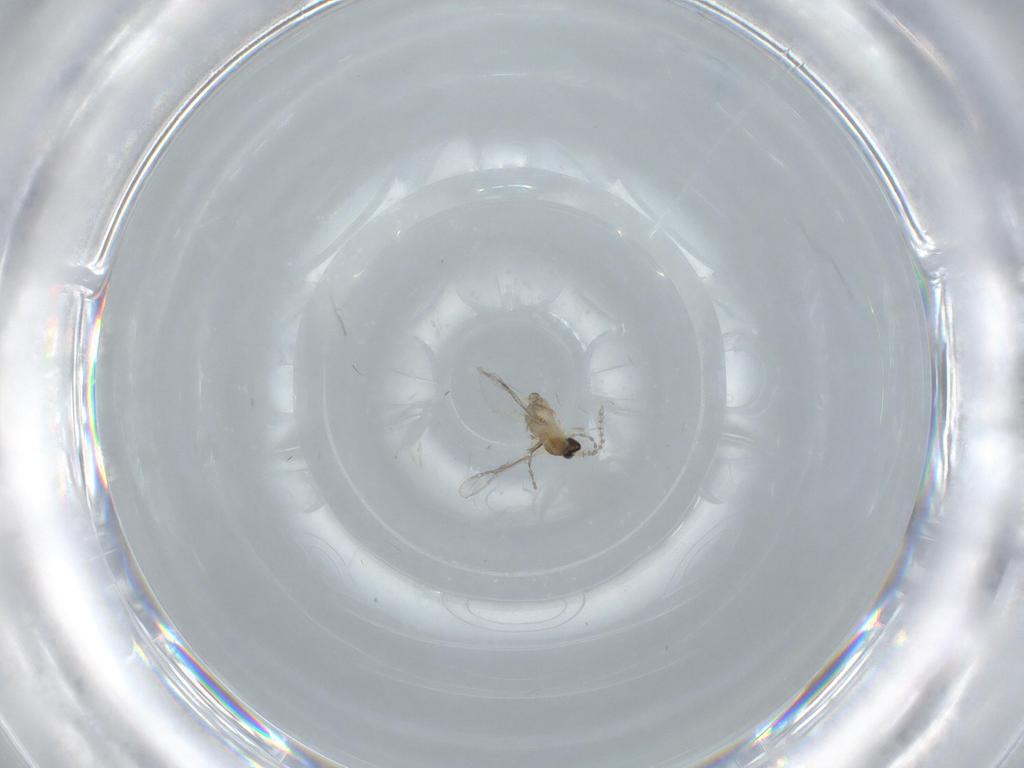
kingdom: Animalia
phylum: Arthropoda
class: Insecta
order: Diptera
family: Cecidomyiidae
